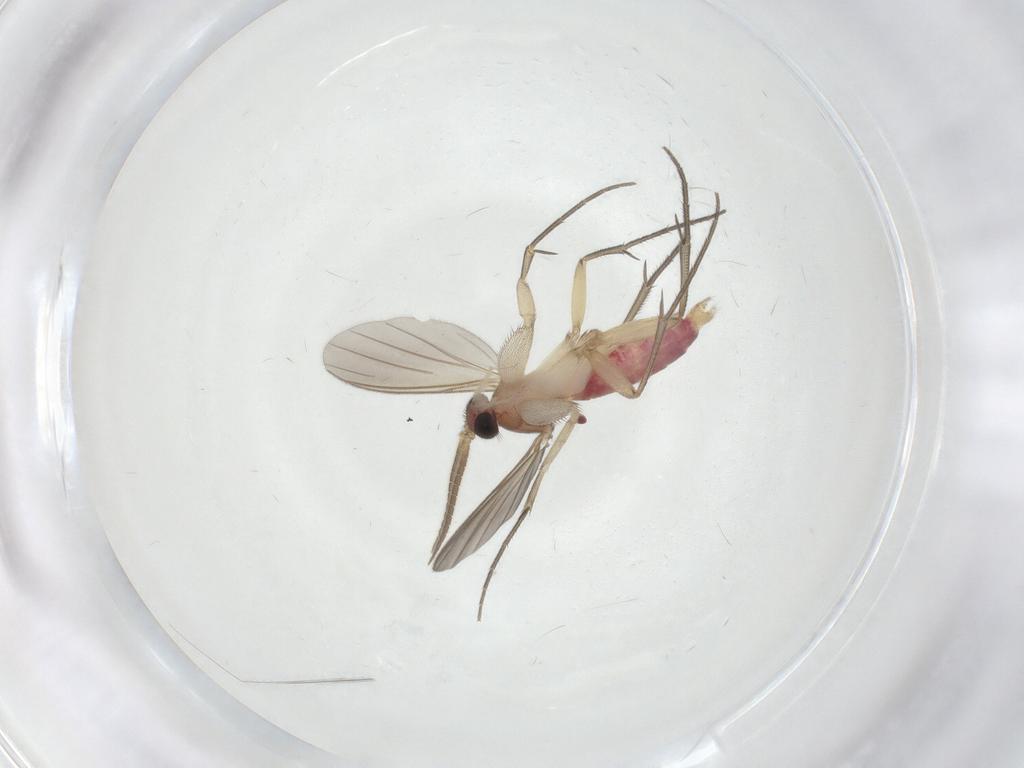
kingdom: Animalia
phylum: Arthropoda
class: Insecta
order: Diptera
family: Mycetophilidae
